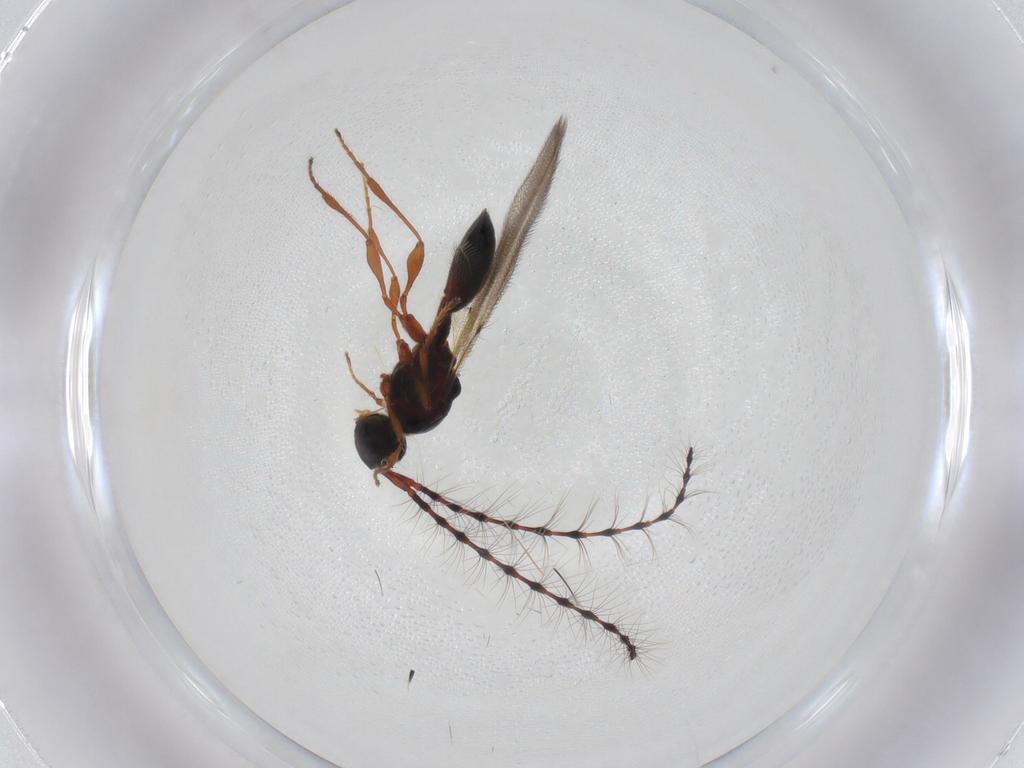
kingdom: Animalia
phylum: Arthropoda
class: Insecta
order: Hymenoptera
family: Diapriidae
